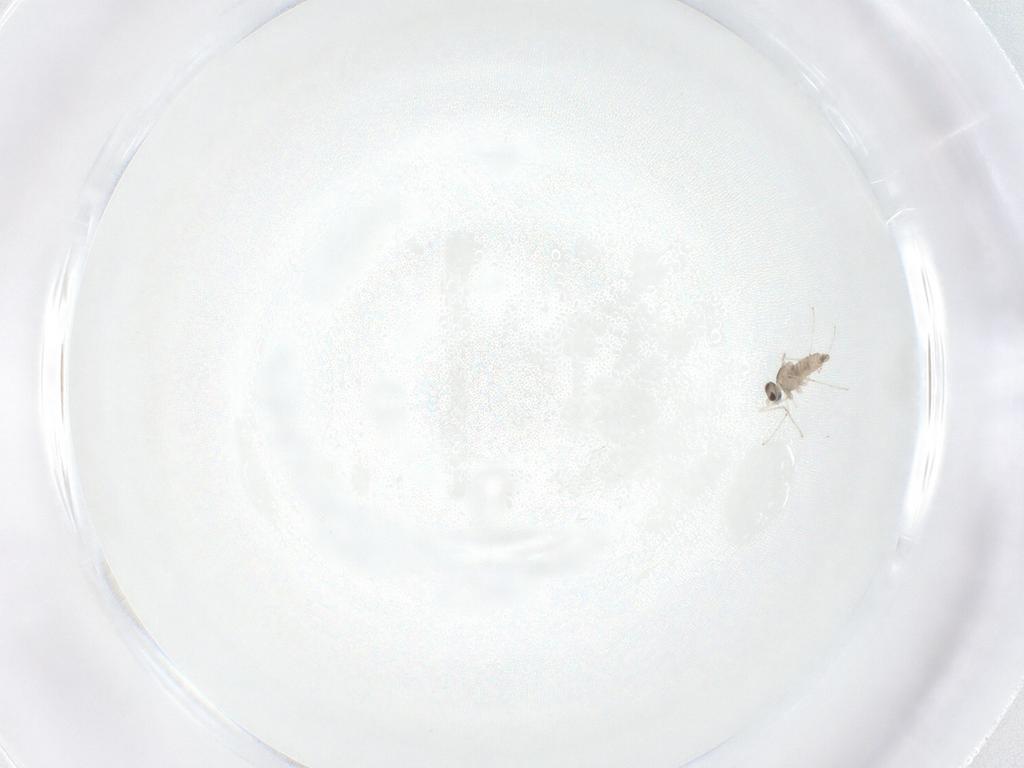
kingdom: Animalia
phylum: Arthropoda
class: Insecta
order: Diptera
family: Cecidomyiidae
